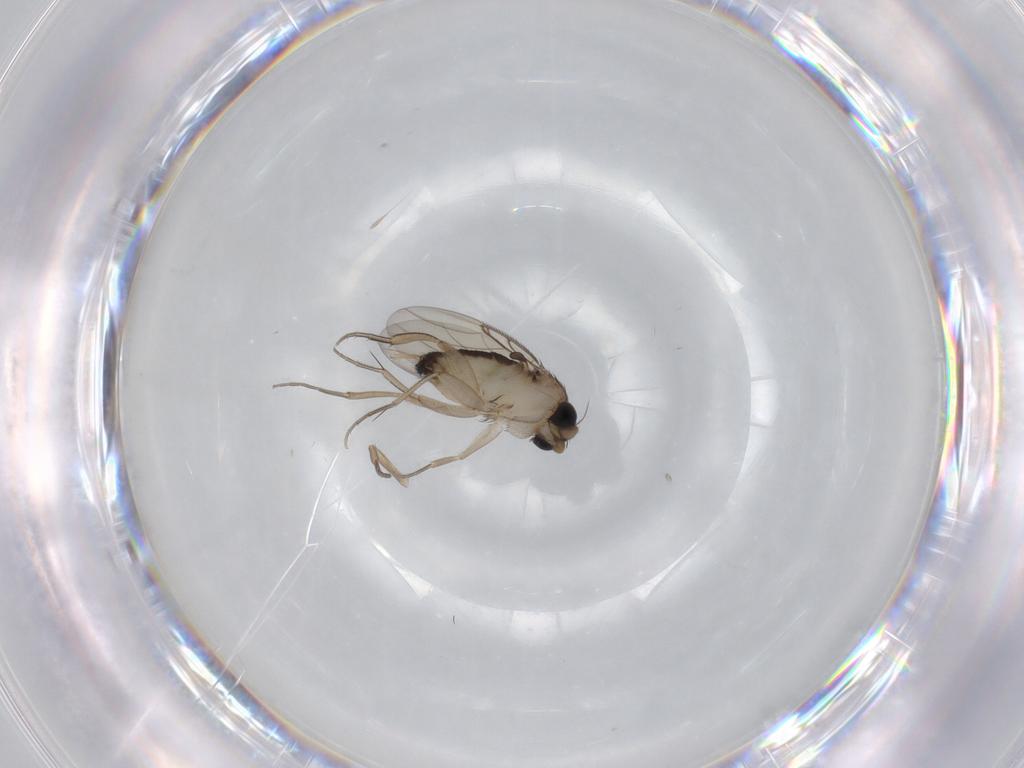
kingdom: Animalia
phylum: Arthropoda
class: Insecta
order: Diptera
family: Phoridae
